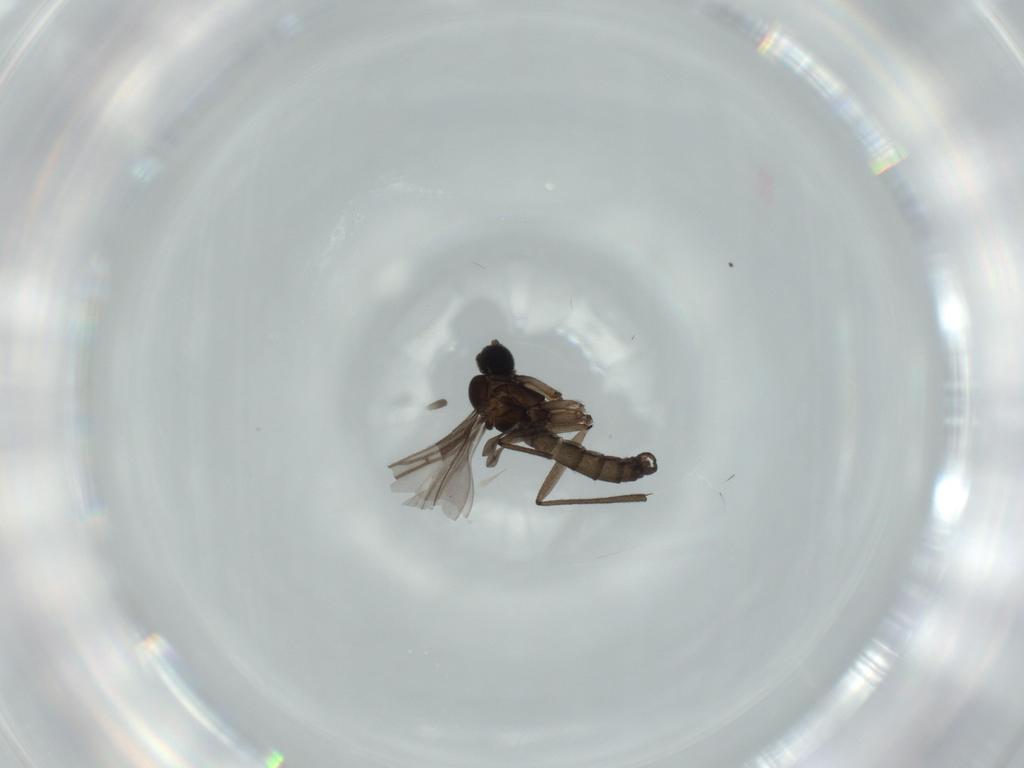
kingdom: Animalia
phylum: Arthropoda
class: Insecta
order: Diptera
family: Sciaridae
